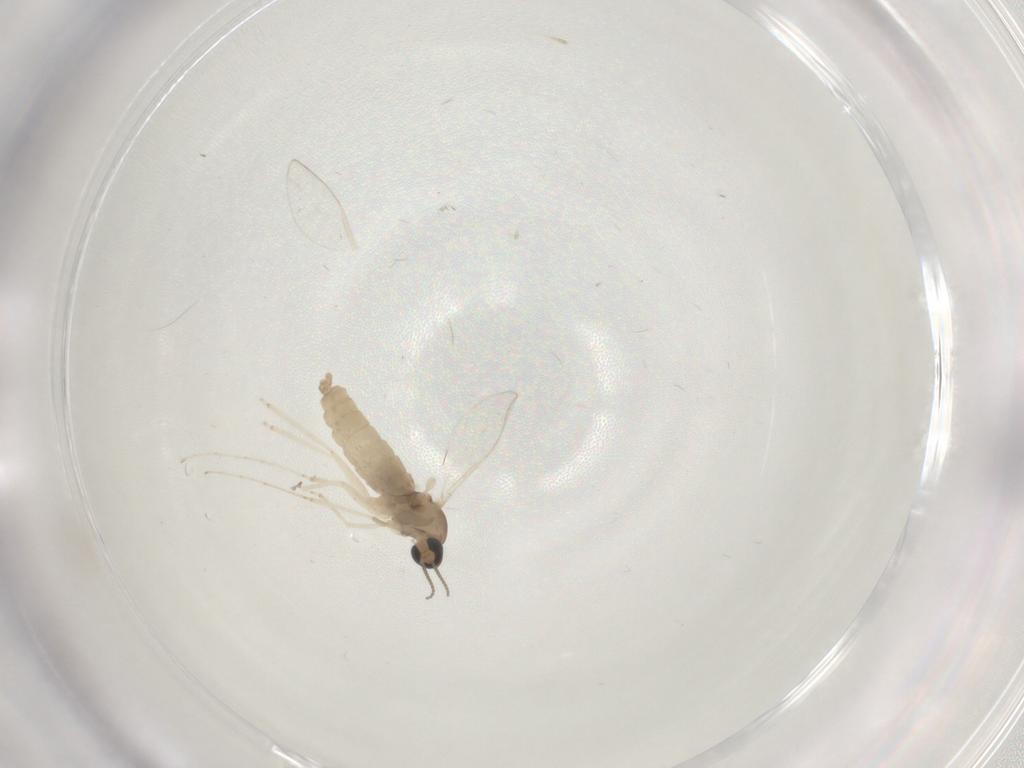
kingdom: Animalia
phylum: Arthropoda
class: Insecta
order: Diptera
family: Cecidomyiidae
